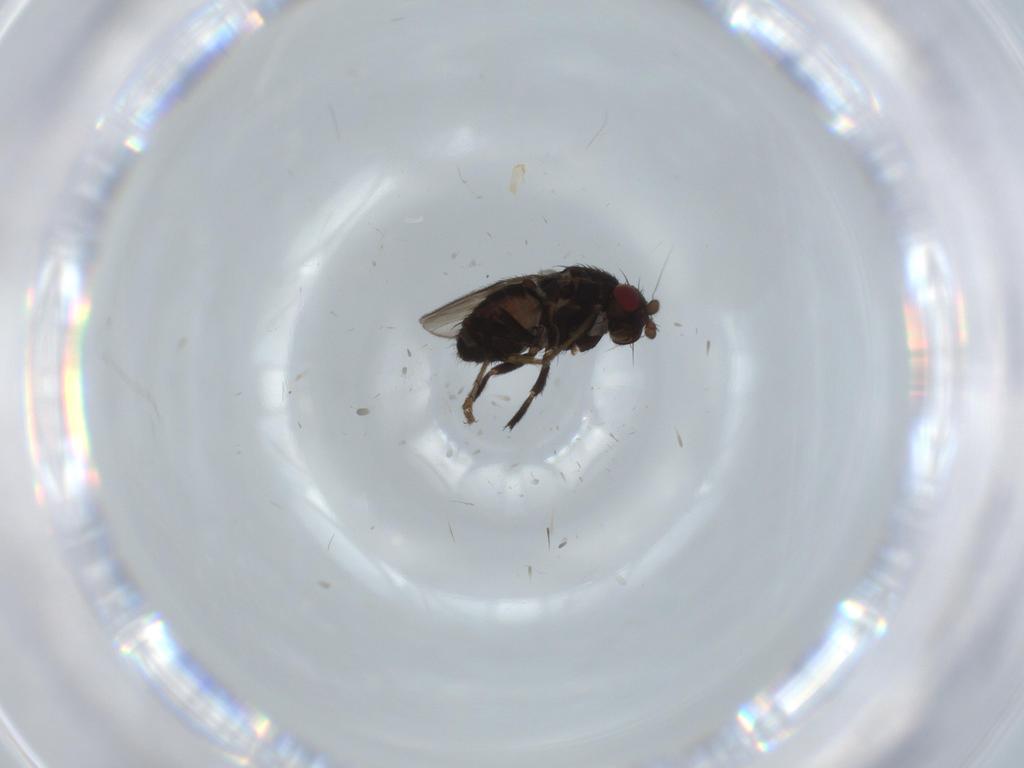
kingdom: Animalia
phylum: Arthropoda
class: Insecta
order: Diptera
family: Sphaeroceridae
